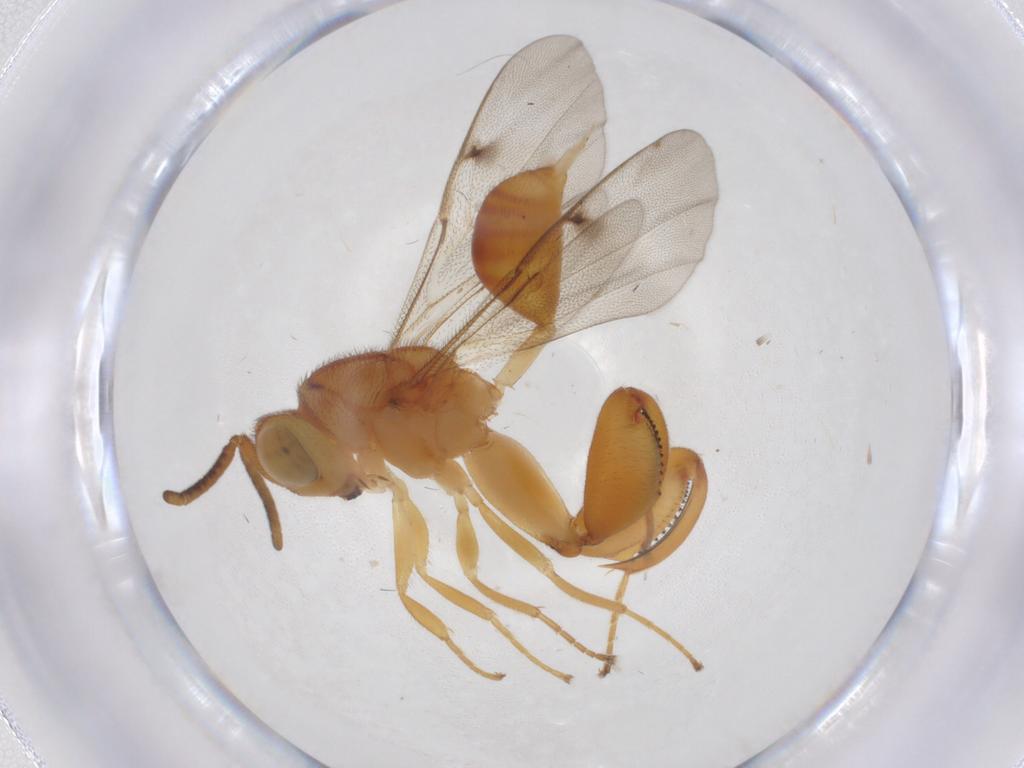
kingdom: Animalia
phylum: Arthropoda
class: Insecta
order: Hymenoptera
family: Chalcididae
